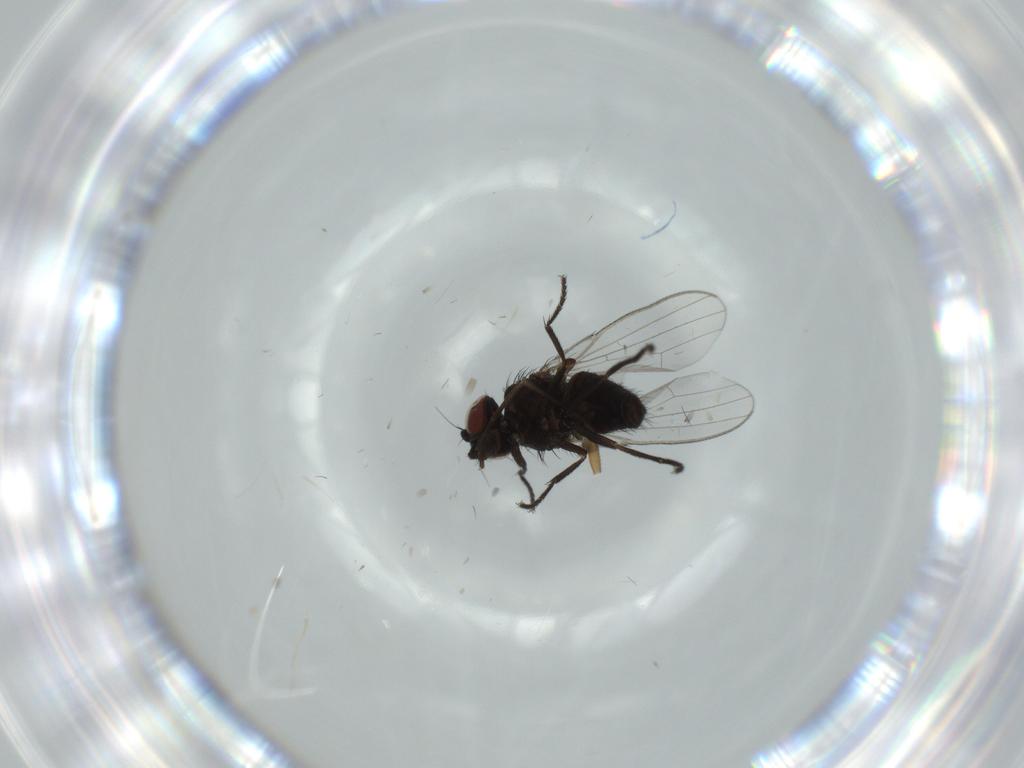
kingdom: Animalia
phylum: Arthropoda
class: Insecta
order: Diptera
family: Milichiidae
